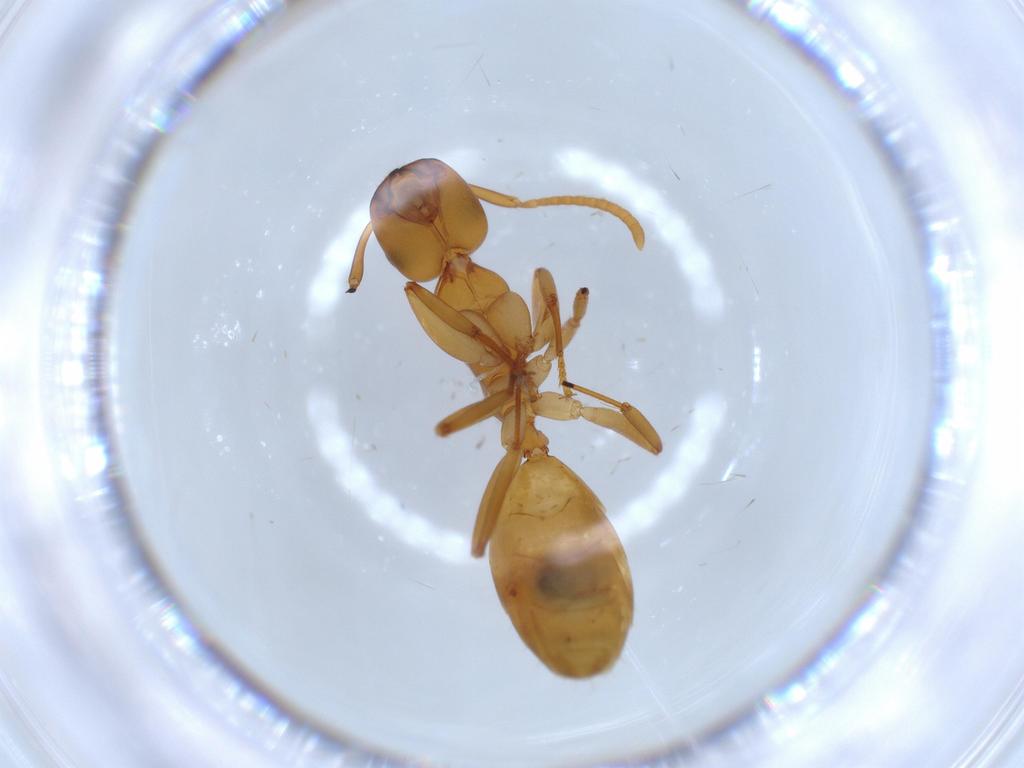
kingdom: Animalia
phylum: Arthropoda
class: Insecta
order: Hymenoptera
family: Formicidae
